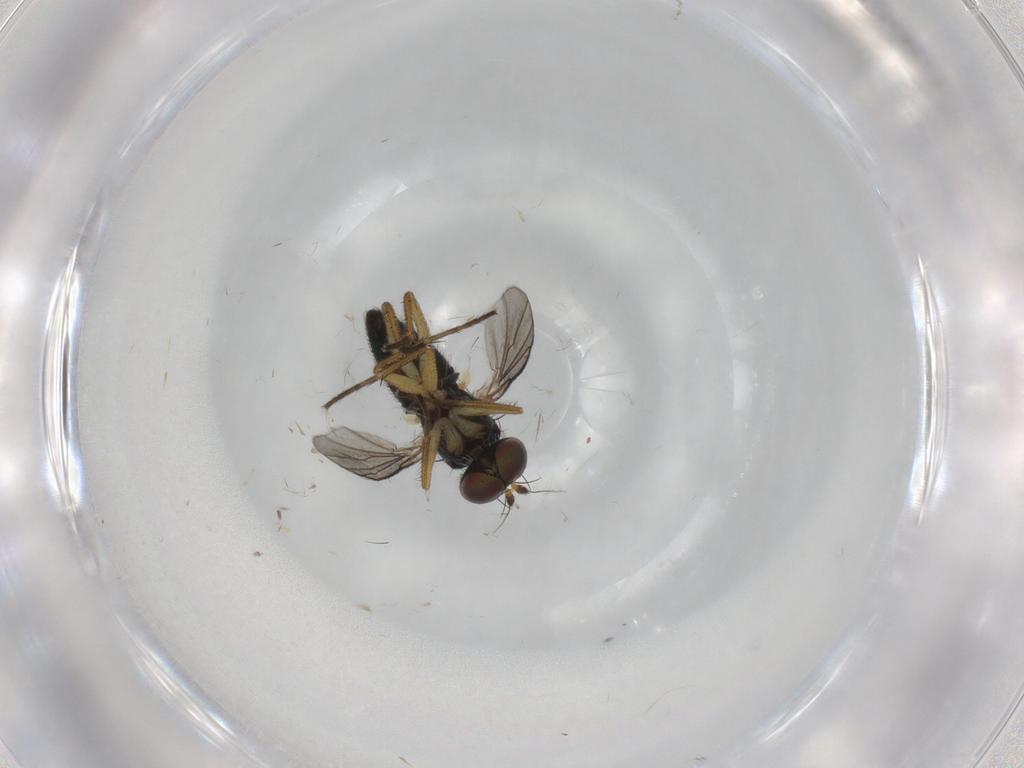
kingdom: Animalia
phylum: Arthropoda
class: Insecta
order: Diptera
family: Dolichopodidae
